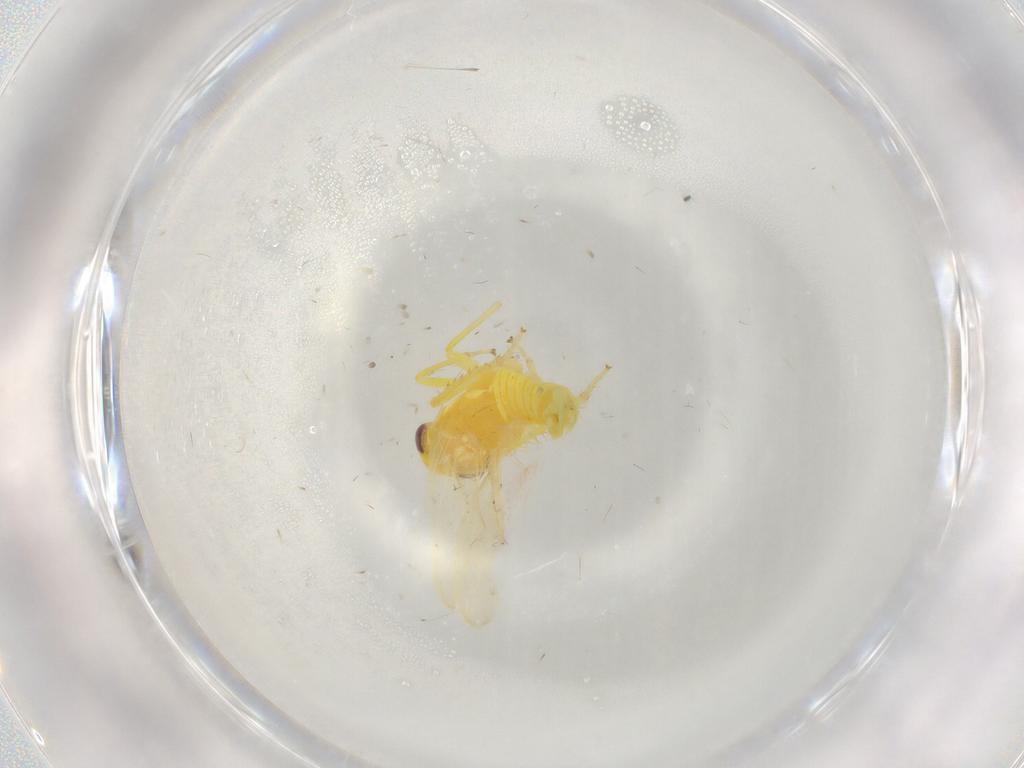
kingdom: Animalia
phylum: Arthropoda
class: Insecta
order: Hemiptera
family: Cicadellidae
